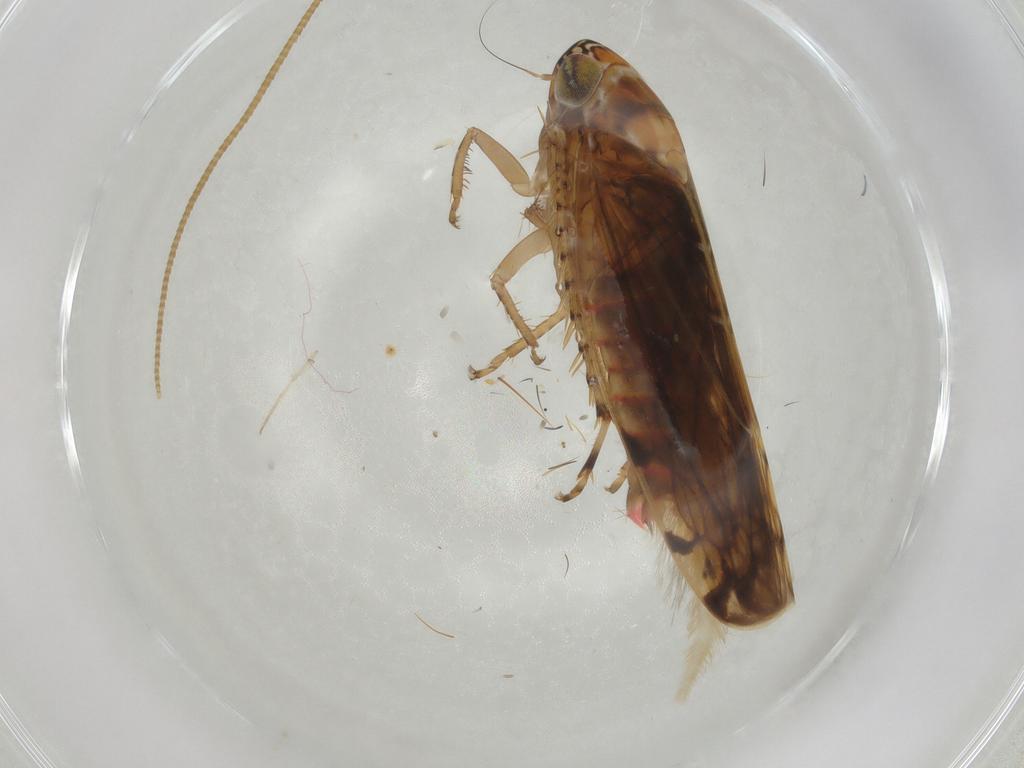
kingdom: Animalia
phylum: Arthropoda
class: Insecta
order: Hemiptera
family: Cicadellidae
